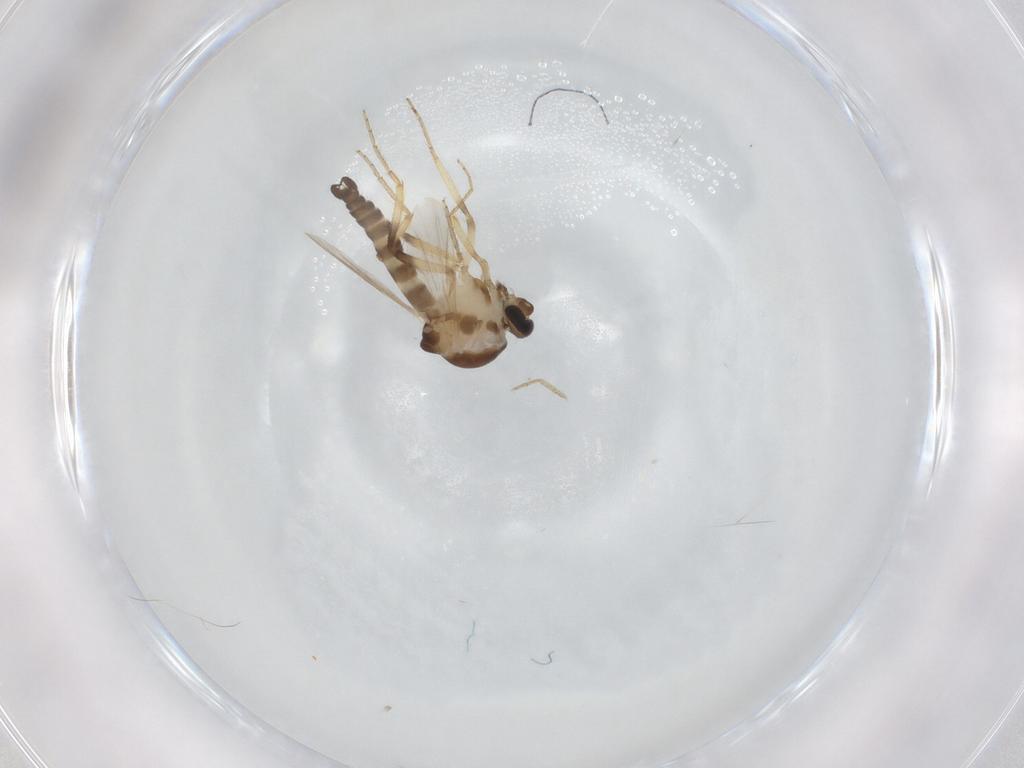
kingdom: Animalia
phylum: Arthropoda
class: Insecta
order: Diptera
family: Ceratopogonidae
